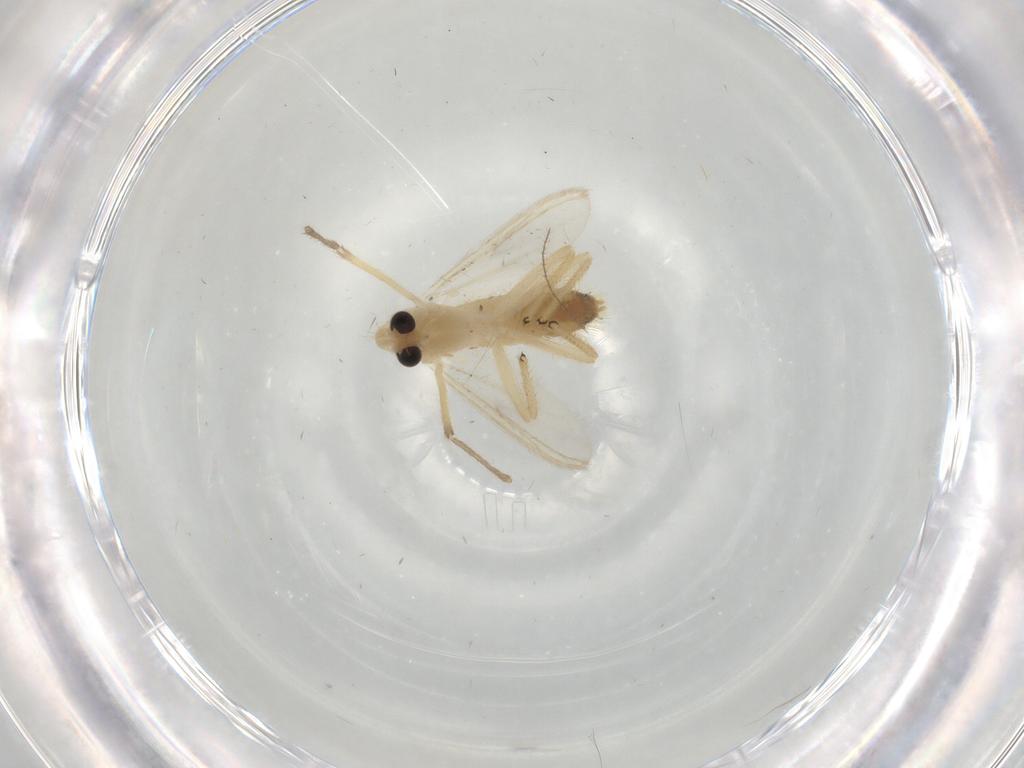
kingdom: Animalia
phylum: Arthropoda
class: Insecta
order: Diptera
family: Chironomidae
